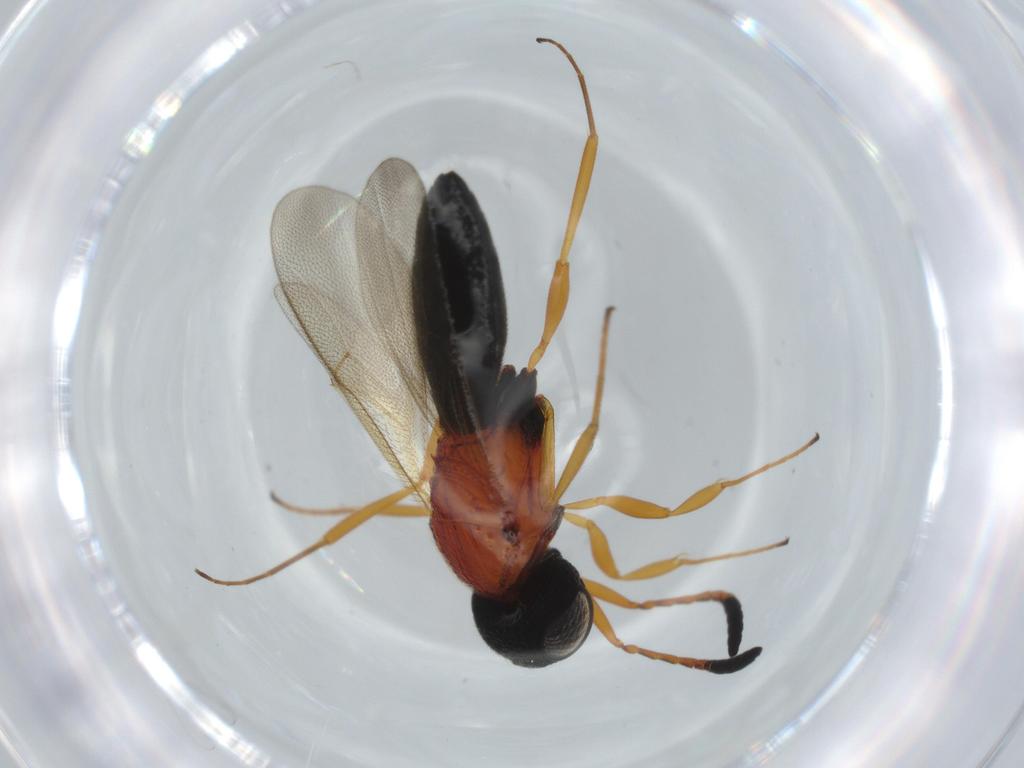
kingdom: Animalia
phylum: Arthropoda
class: Insecta
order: Hymenoptera
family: Scelionidae
